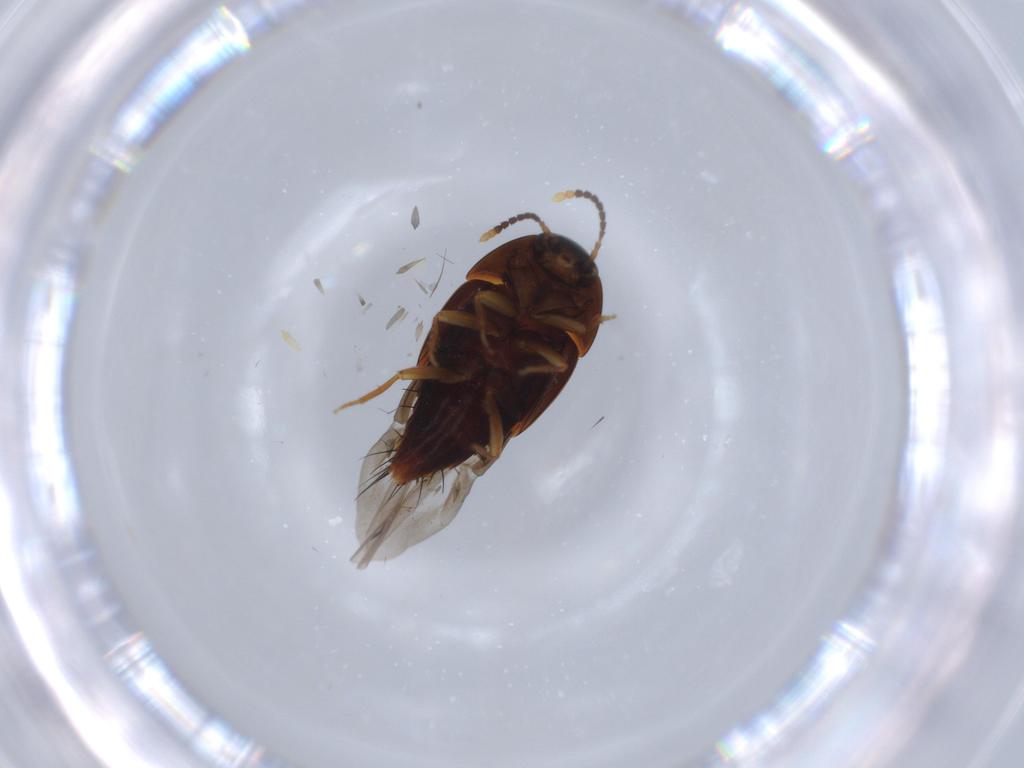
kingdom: Animalia
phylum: Arthropoda
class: Insecta
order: Coleoptera
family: Staphylinidae
